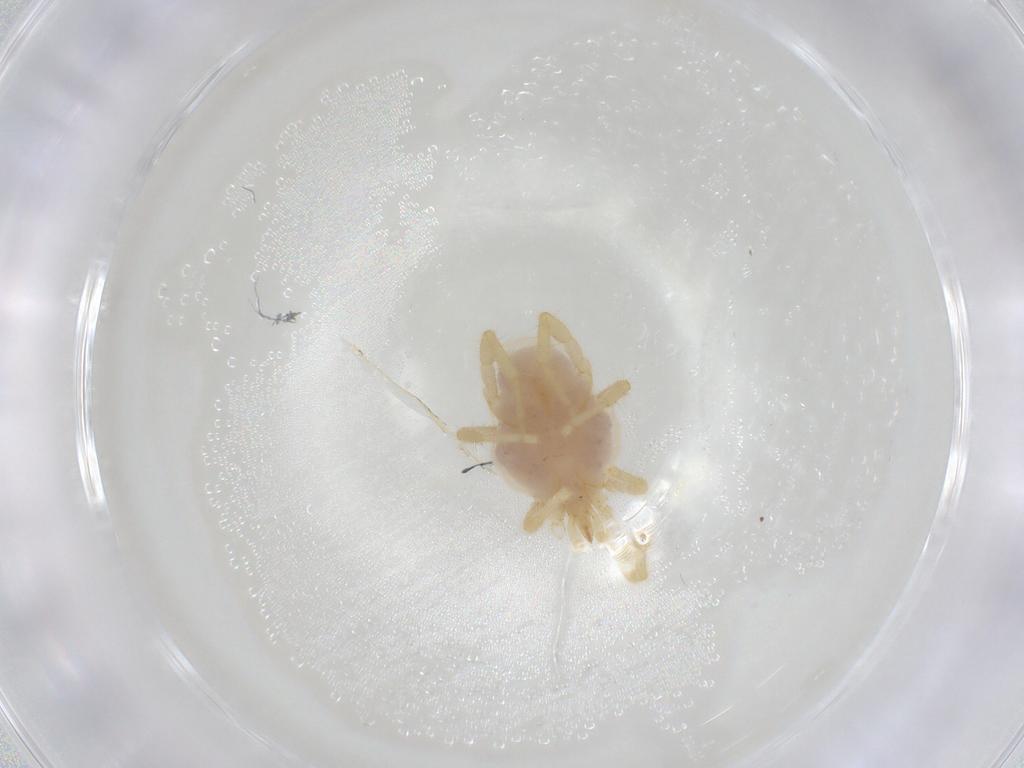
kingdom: Animalia
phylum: Arthropoda
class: Arachnida
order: Trombidiformes
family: Erythraeidae
